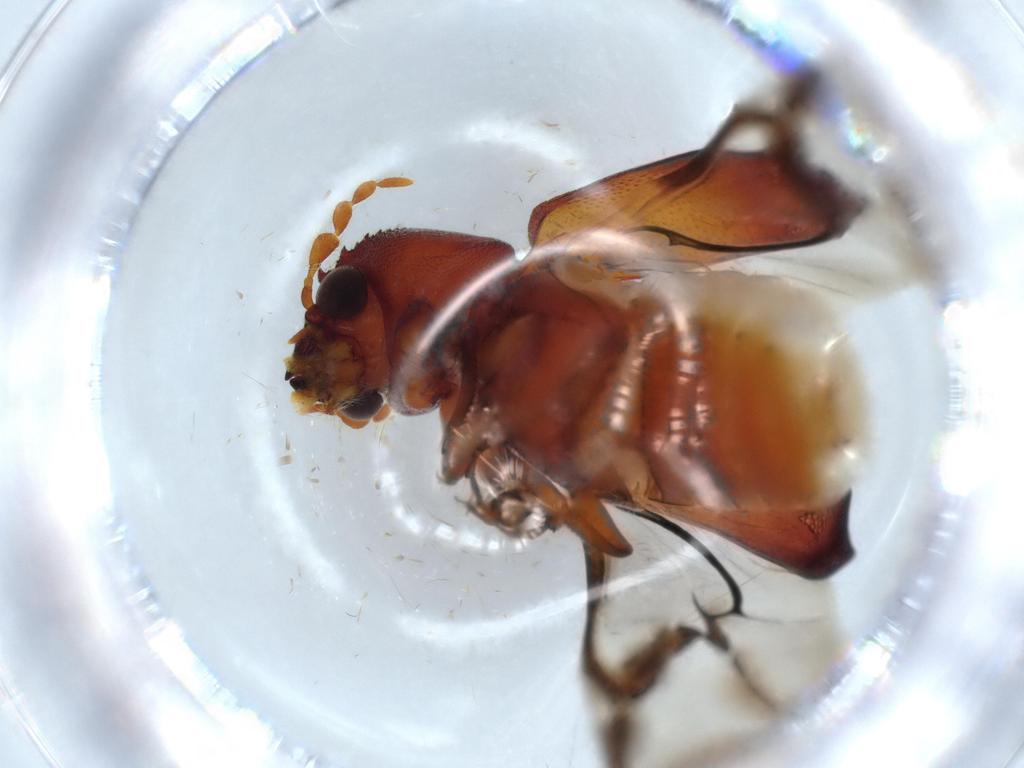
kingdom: Animalia
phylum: Arthropoda
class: Insecta
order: Coleoptera
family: Bostrichidae
